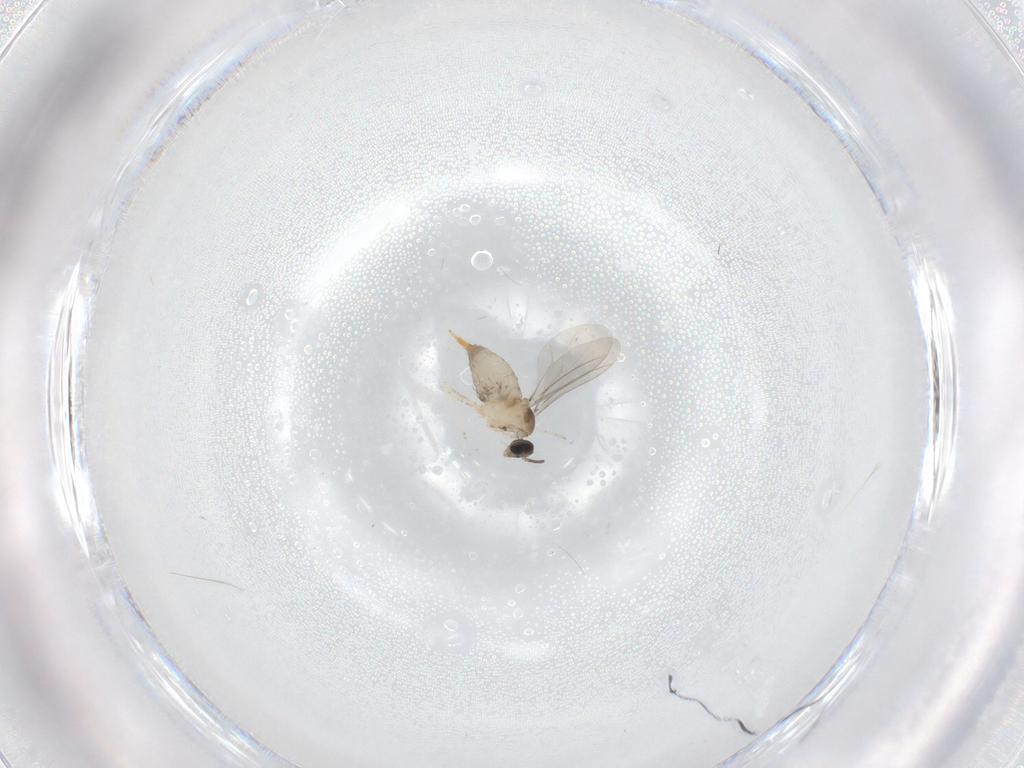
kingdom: Animalia
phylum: Arthropoda
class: Insecta
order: Diptera
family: Cecidomyiidae
